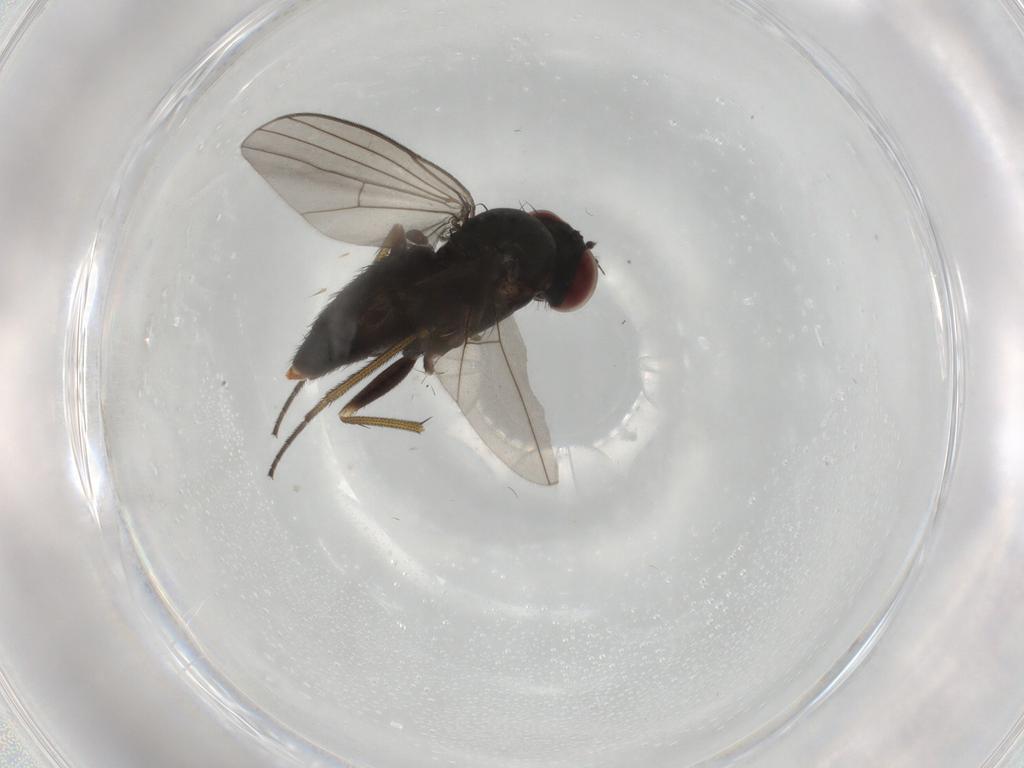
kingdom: Animalia
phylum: Arthropoda
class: Insecta
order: Diptera
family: Dolichopodidae
